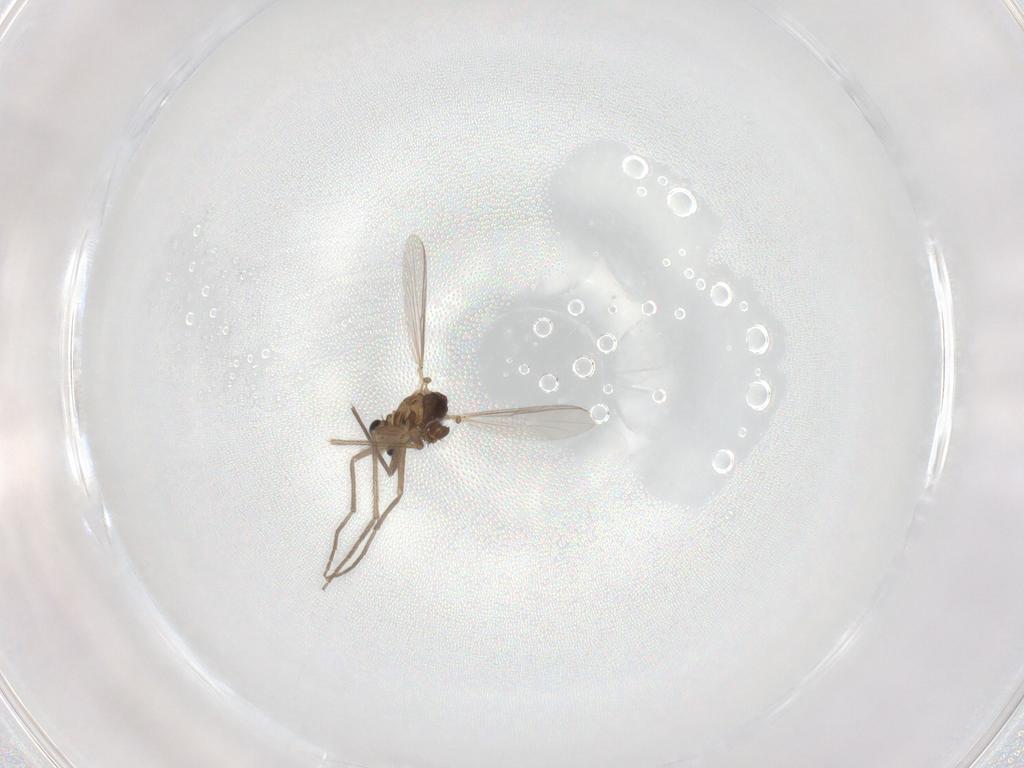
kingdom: Animalia
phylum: Arthropoda
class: Insecta
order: Diptera
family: Chironomidae
